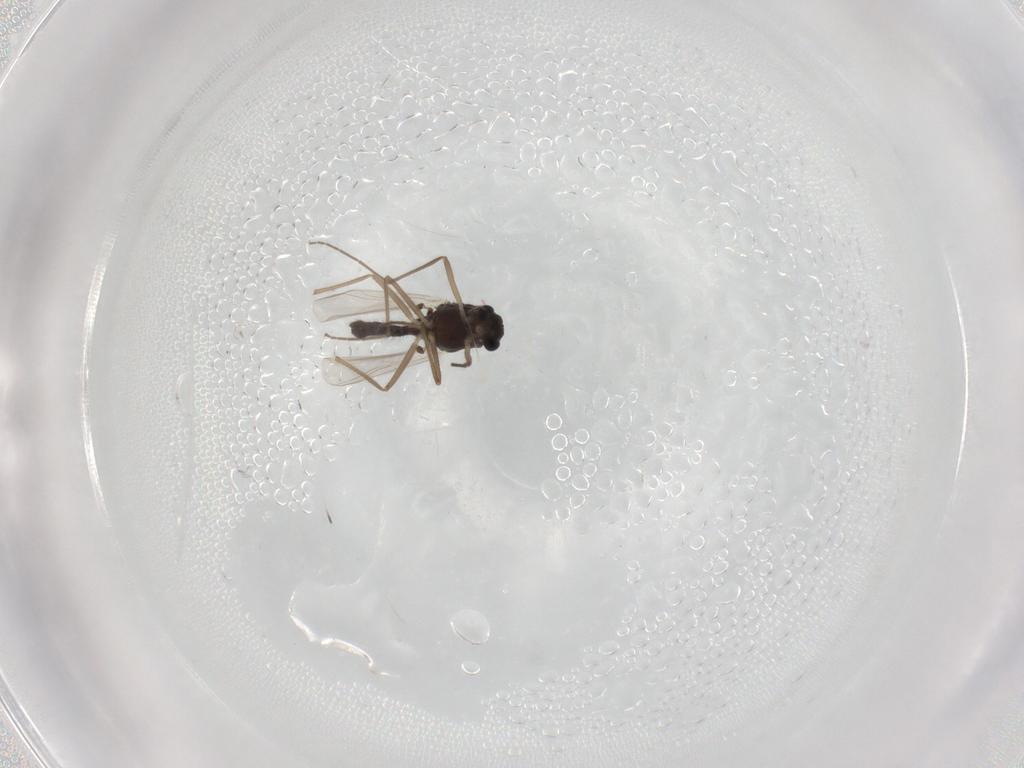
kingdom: Animalia
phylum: Arthropoda
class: Insecta
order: Diptera
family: Chironomidae
